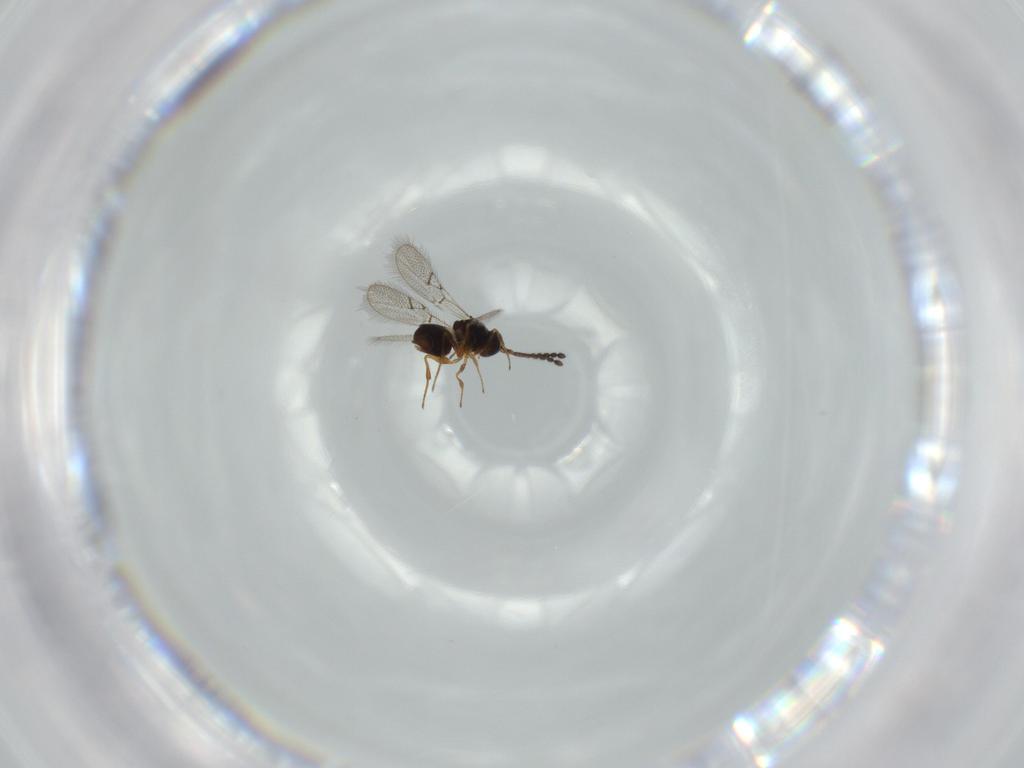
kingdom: Animalia
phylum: Arthropoda
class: Insecta
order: Hymenoptera
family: Figitidae
